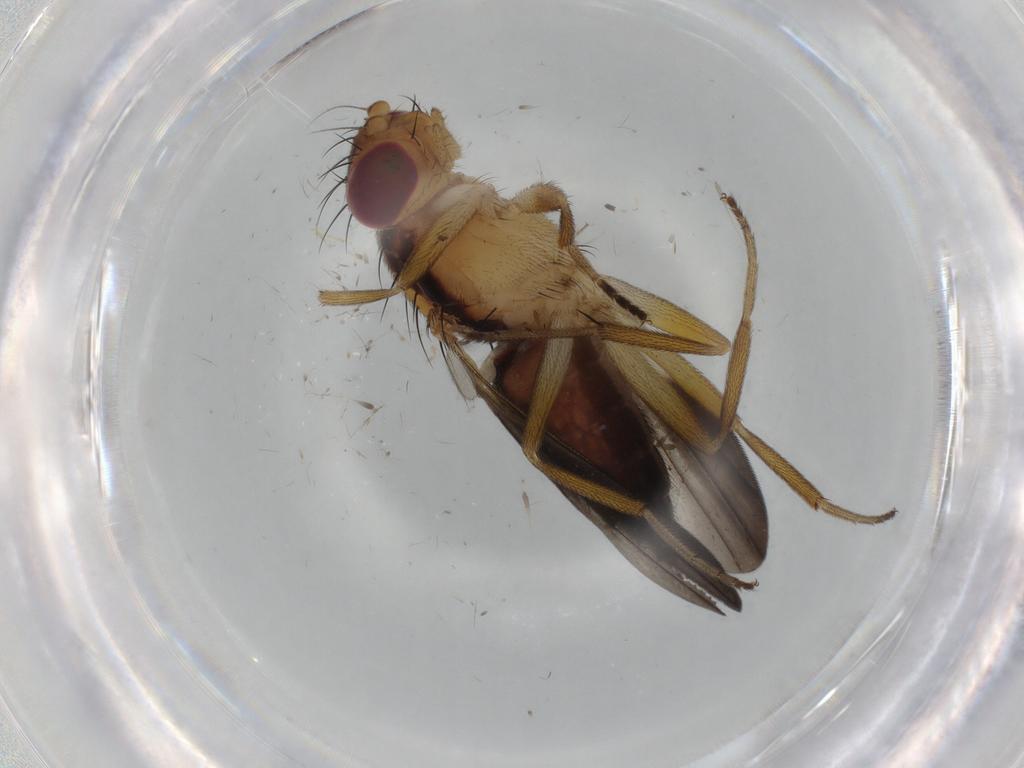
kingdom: Animalia
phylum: Arthropoda
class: Insecta
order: Diptera
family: Clusiidae
